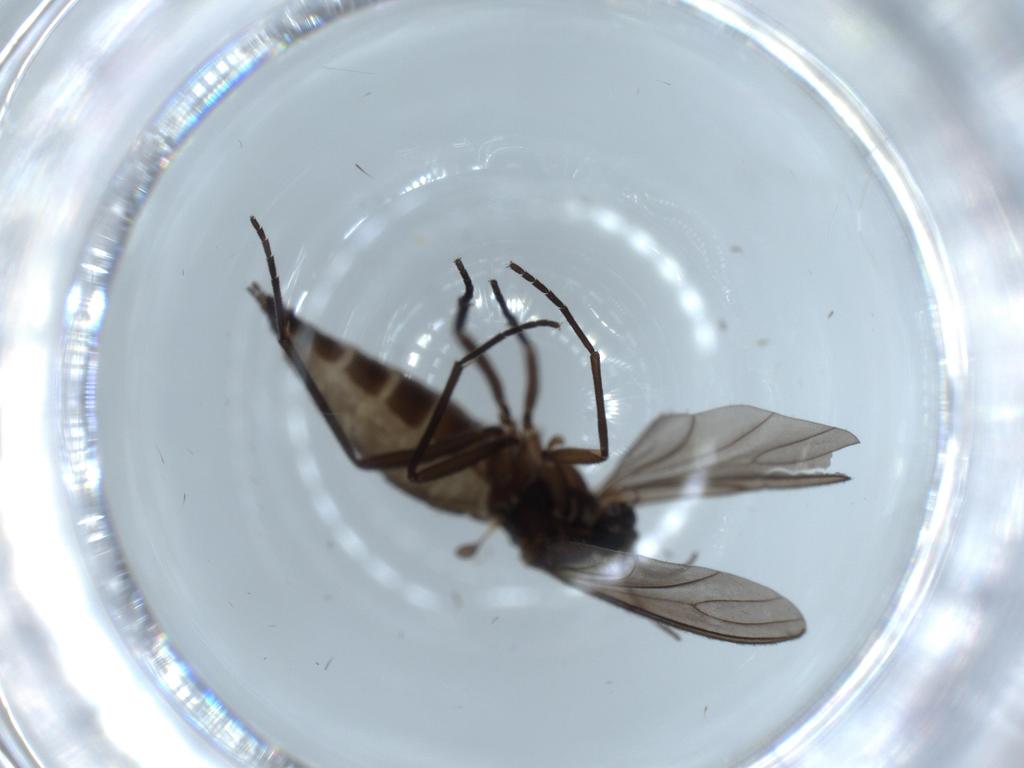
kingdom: Animalia
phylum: Arthropoda
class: Insecta
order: Diptera
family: Sciaridae
